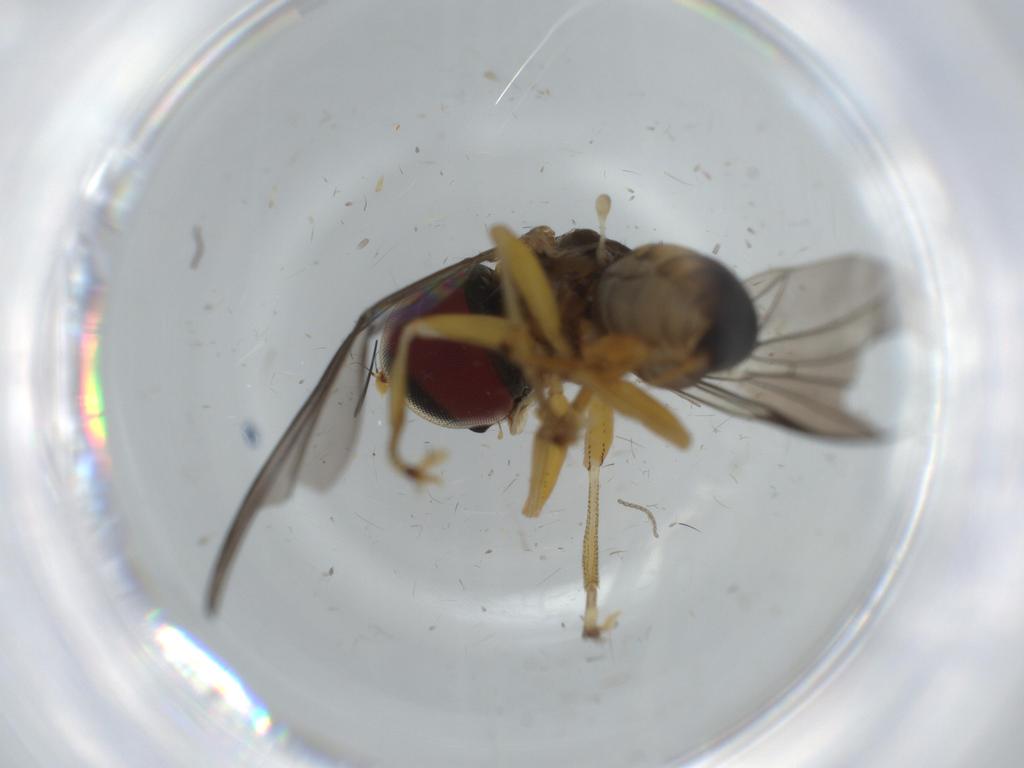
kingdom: Animalia
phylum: Arthropoda
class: Insecta
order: Diptera
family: Pipunculidae
